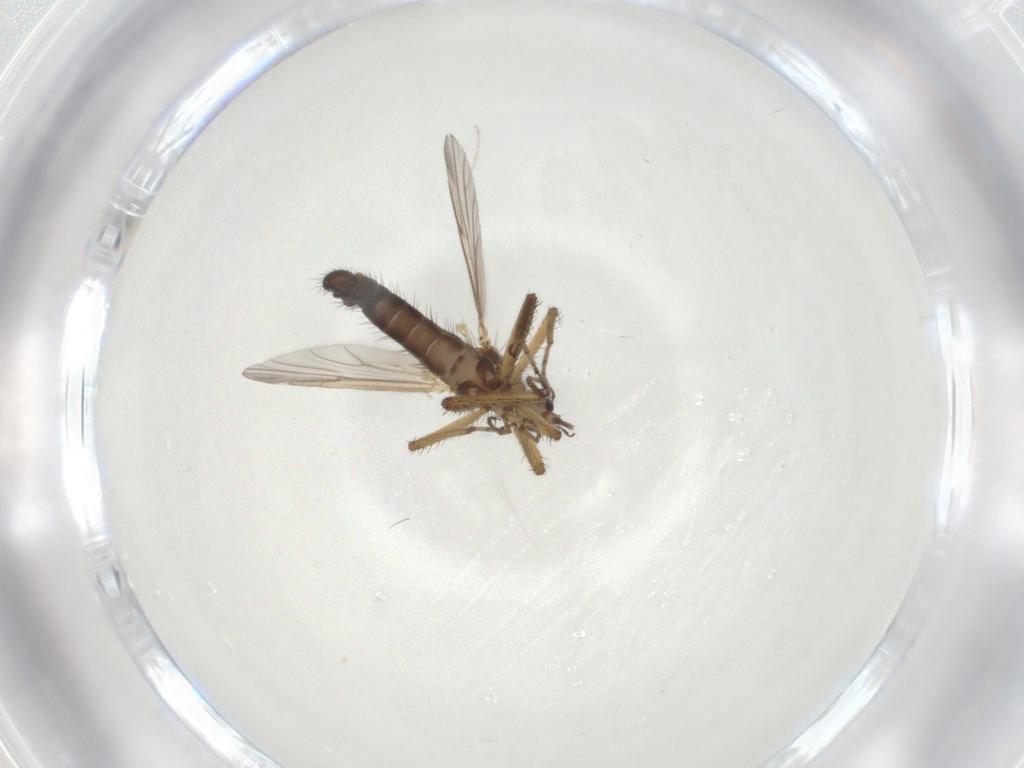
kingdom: Animalia
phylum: Arthropoda
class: Insecta
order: Diptera
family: Ceratopogonidae
